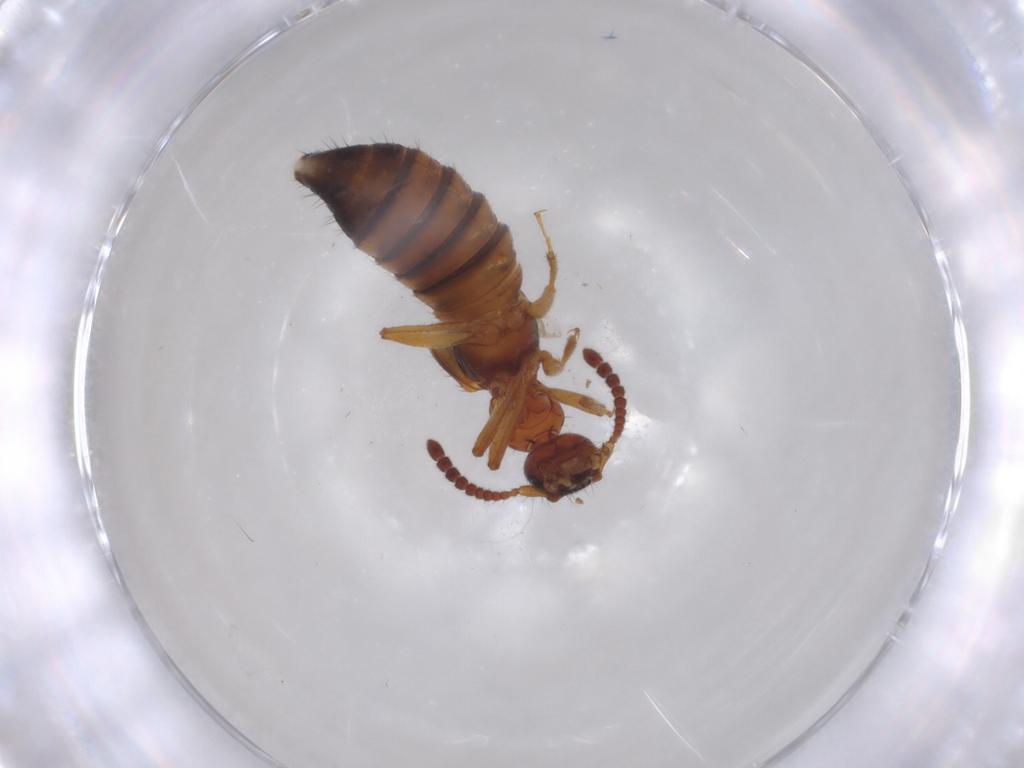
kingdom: Animalia
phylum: Arthropoda
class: Insecta
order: Coleoptera
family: Staphylinidae
